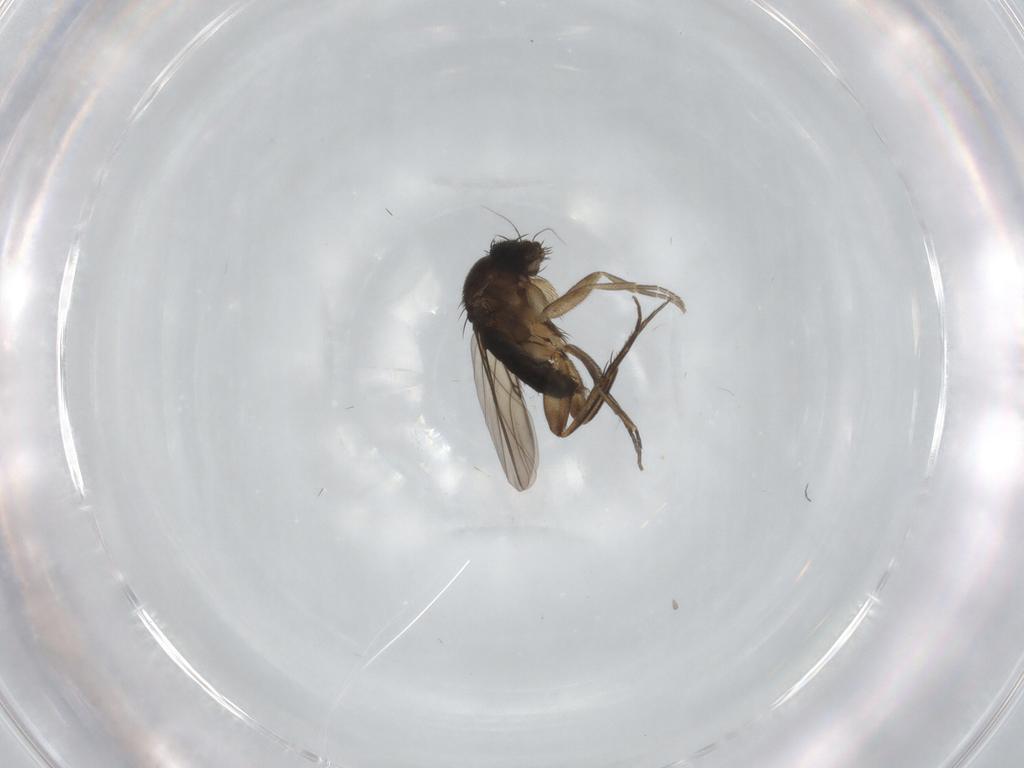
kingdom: Animalia
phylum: Arthropoda
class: Insecta
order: Diptera
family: Phoridae
